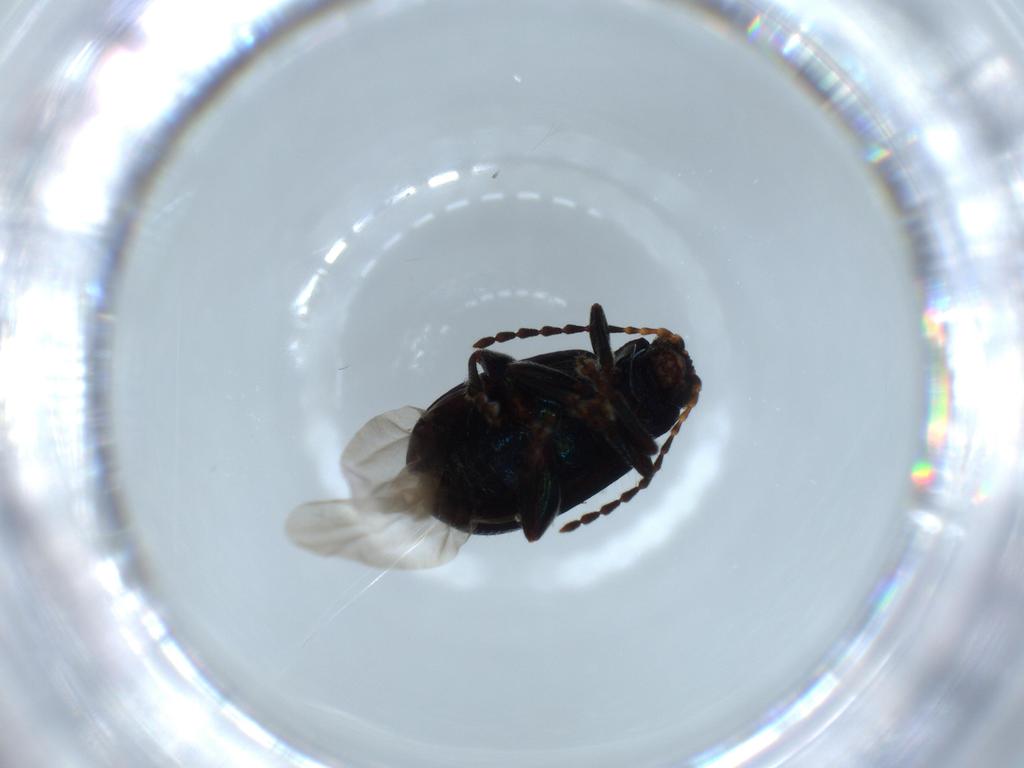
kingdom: Animalia
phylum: Arthropoda
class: Insecta
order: Coleoptera
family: Chrysomelidae
